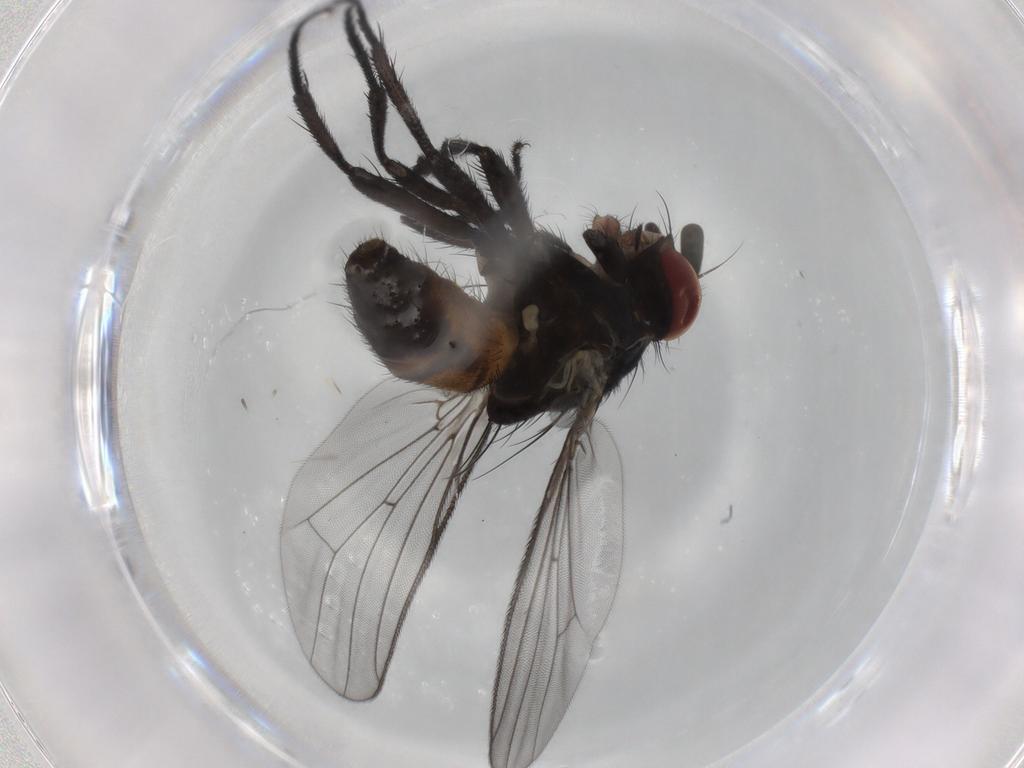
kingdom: Animalia
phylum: Arthropoda
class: Insecta
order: Diptera
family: Phoridae
